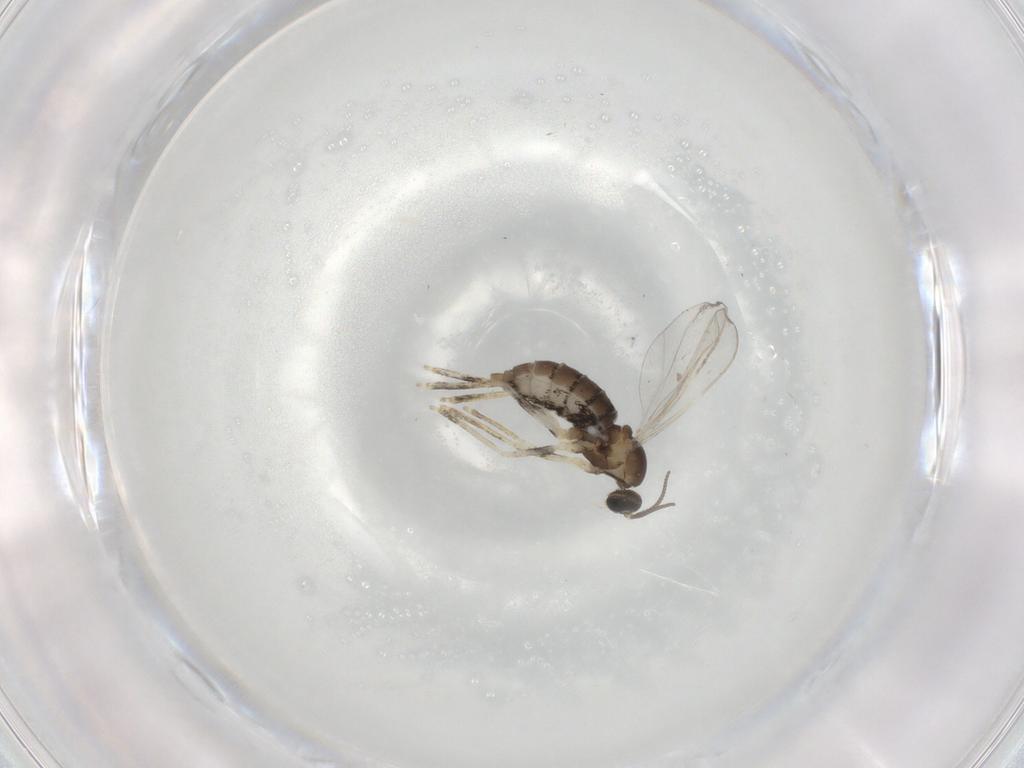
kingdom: Animalia
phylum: Arthropoda
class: Insecta
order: Diptera
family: Cecidomyiidae
